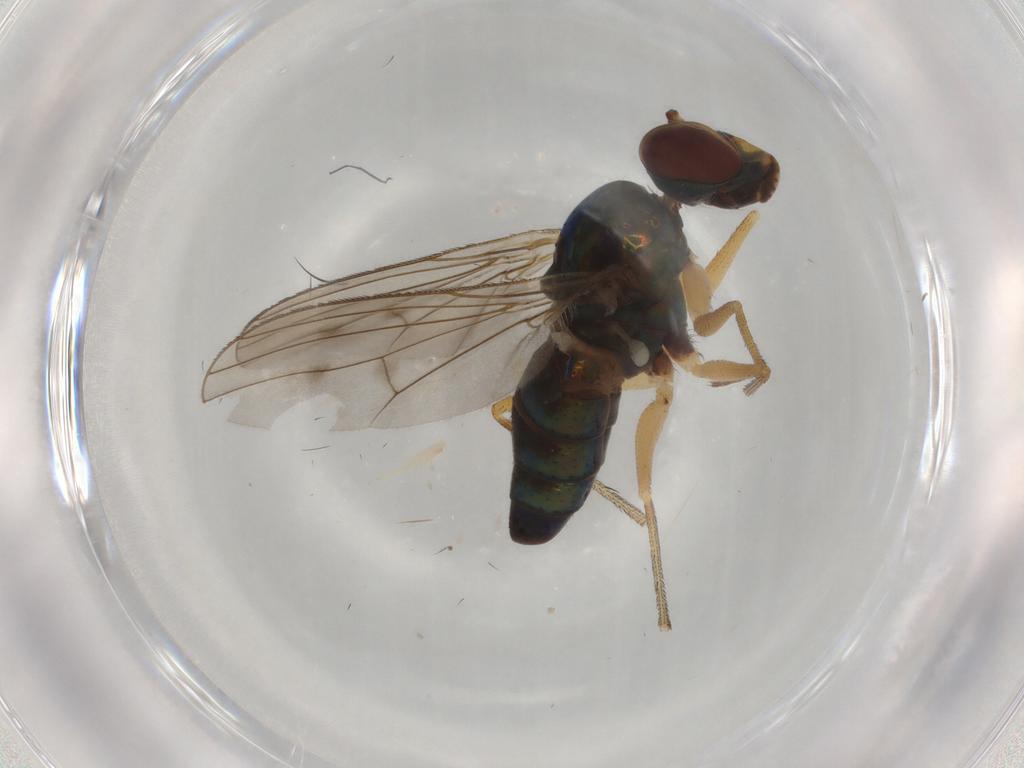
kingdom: Animalia
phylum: Arthropoda
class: Insecta
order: Diptera
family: Dolichopodidae
